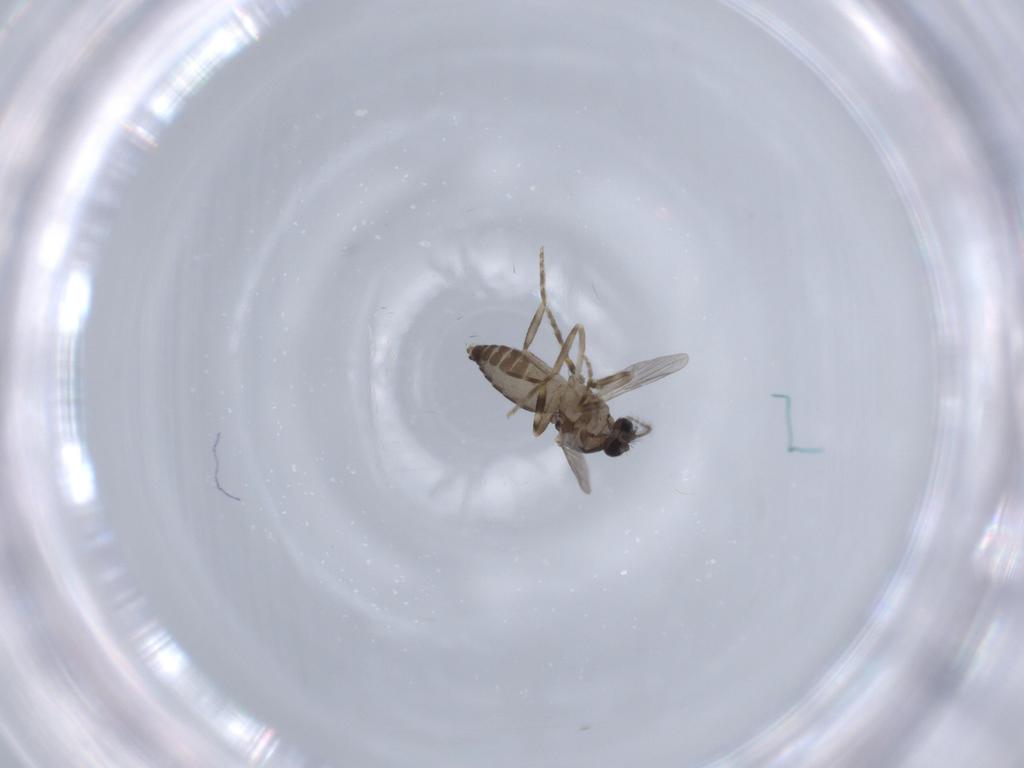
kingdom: Animalia
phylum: Arthropoda
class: Insecta
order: Diptera
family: Ceratopogonidae
